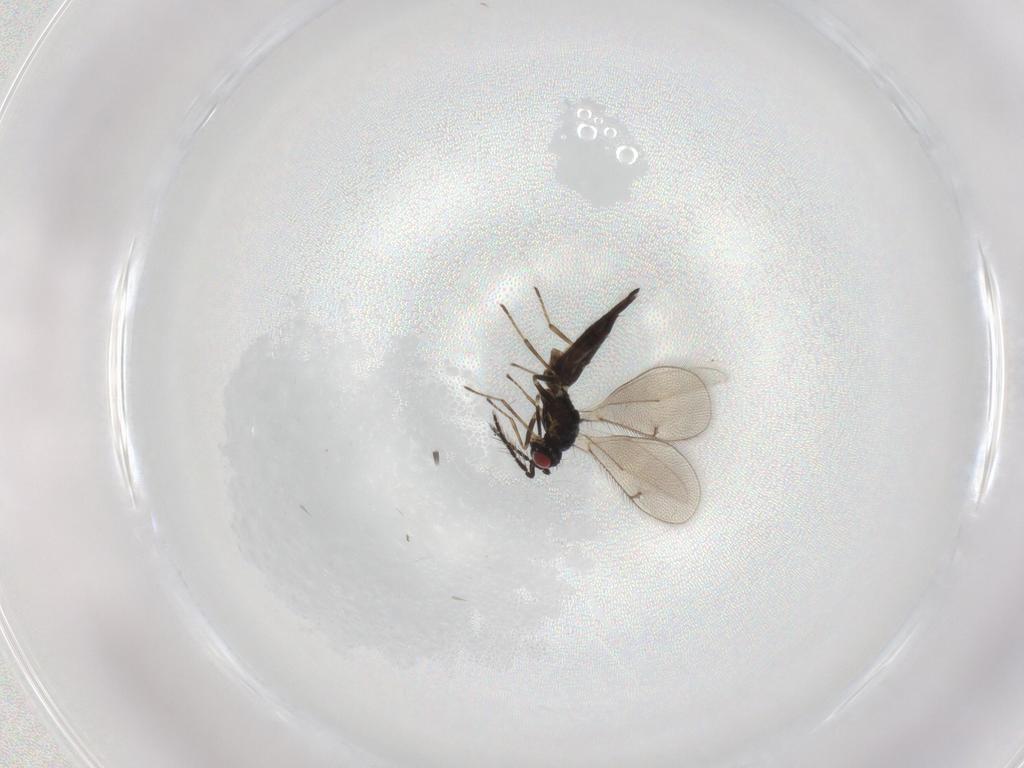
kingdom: Animalia
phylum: Arthropoda
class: Insecta
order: Hymenoptera
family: Eulophidae
